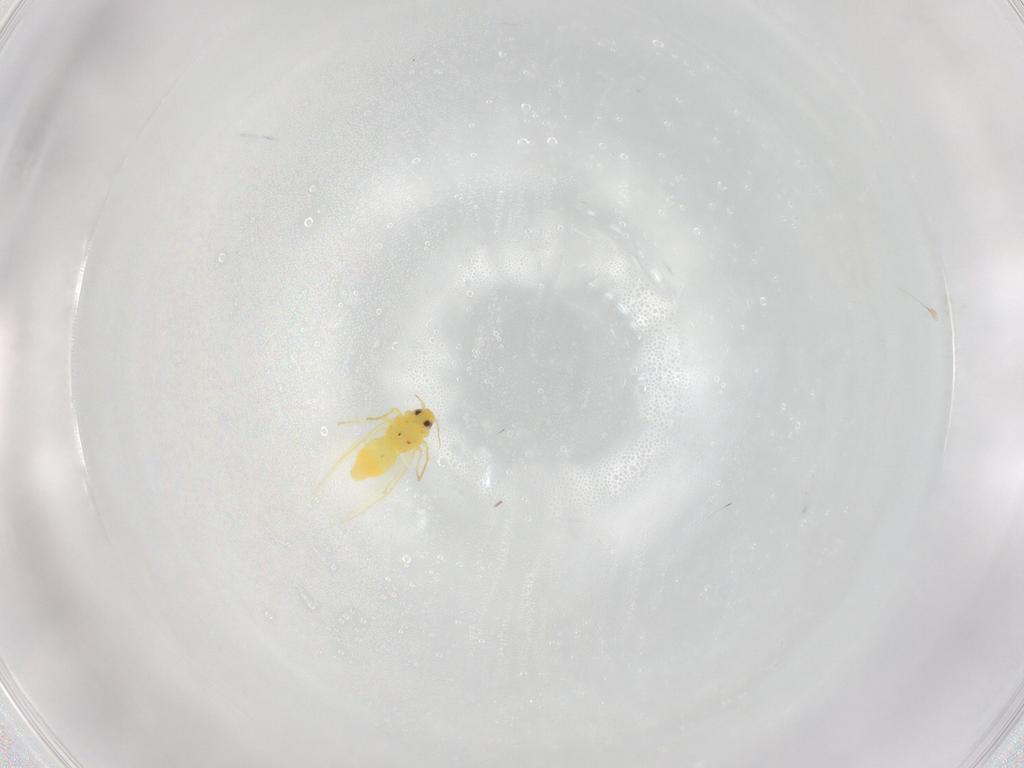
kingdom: Animalia
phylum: Arthropoda
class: Insecta
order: Hemiptera
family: Aleyrodidae
